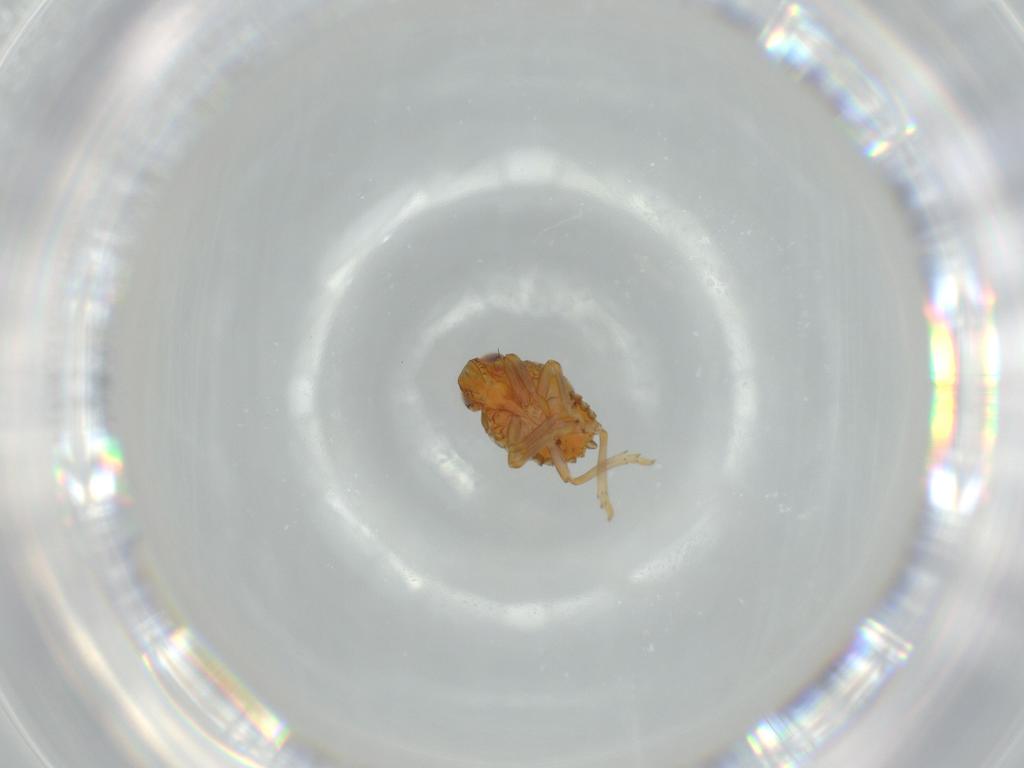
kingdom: Animalia
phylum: Arthropoda
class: Insecta
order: Hemiptera
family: Issidae
